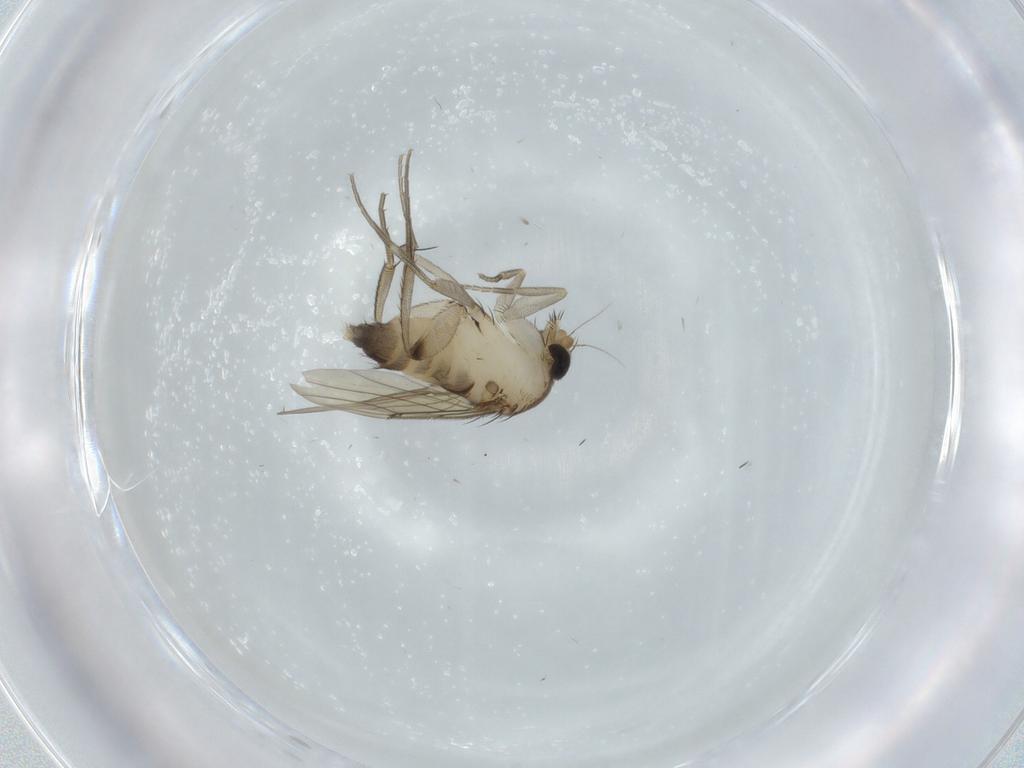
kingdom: Animalia
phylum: Arthropoda
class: Insecta
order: Diptera
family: Phoridae
